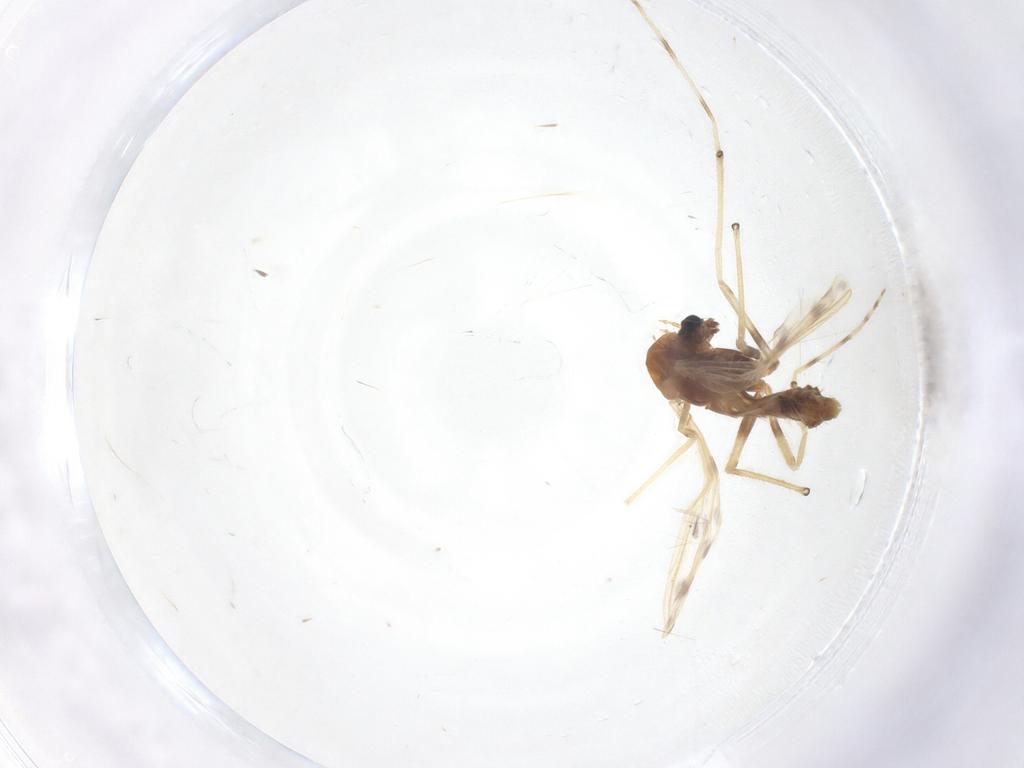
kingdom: Animalia
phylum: Arthropoda
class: Insecta
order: Diptera
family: Chironomidae
